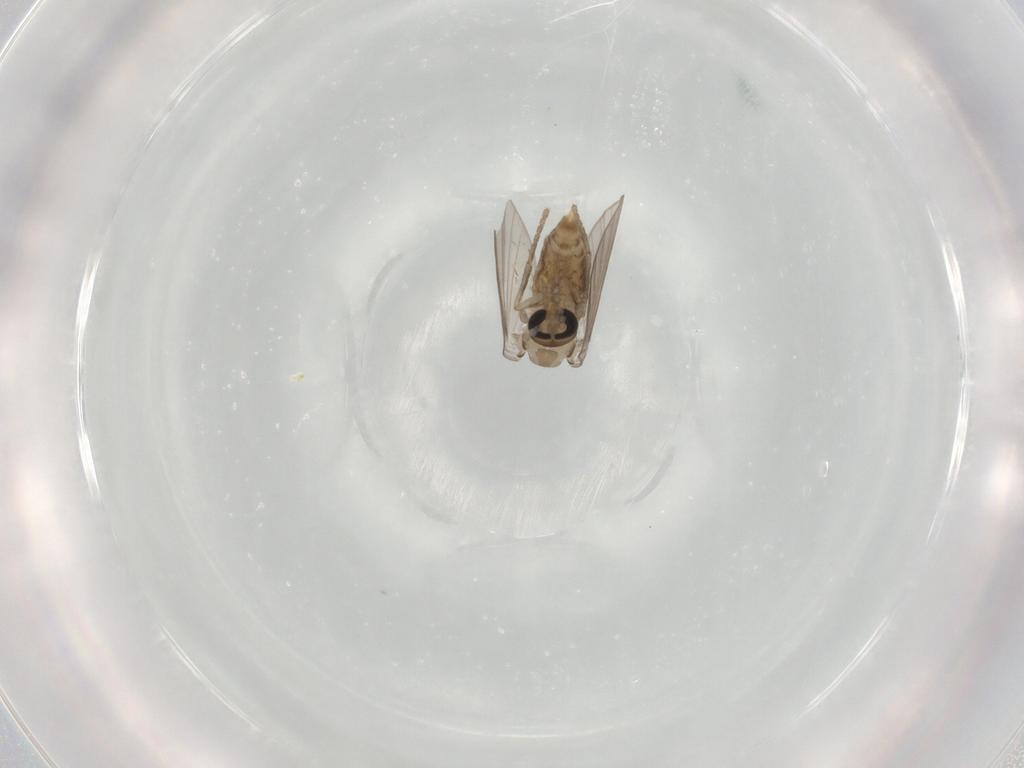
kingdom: Animalia
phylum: Arthropoda
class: Insecta
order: Diptera
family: Psychodidae
